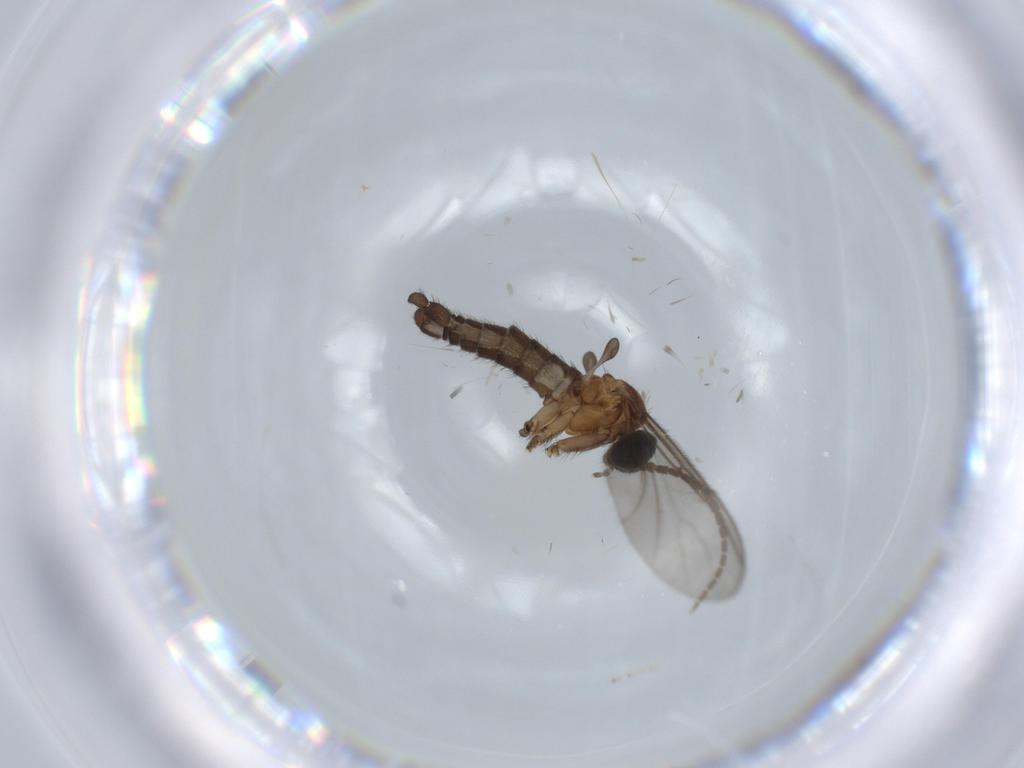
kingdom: Animalia
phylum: Arthropoda
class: Insecta
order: Diptera
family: Sciaridae
